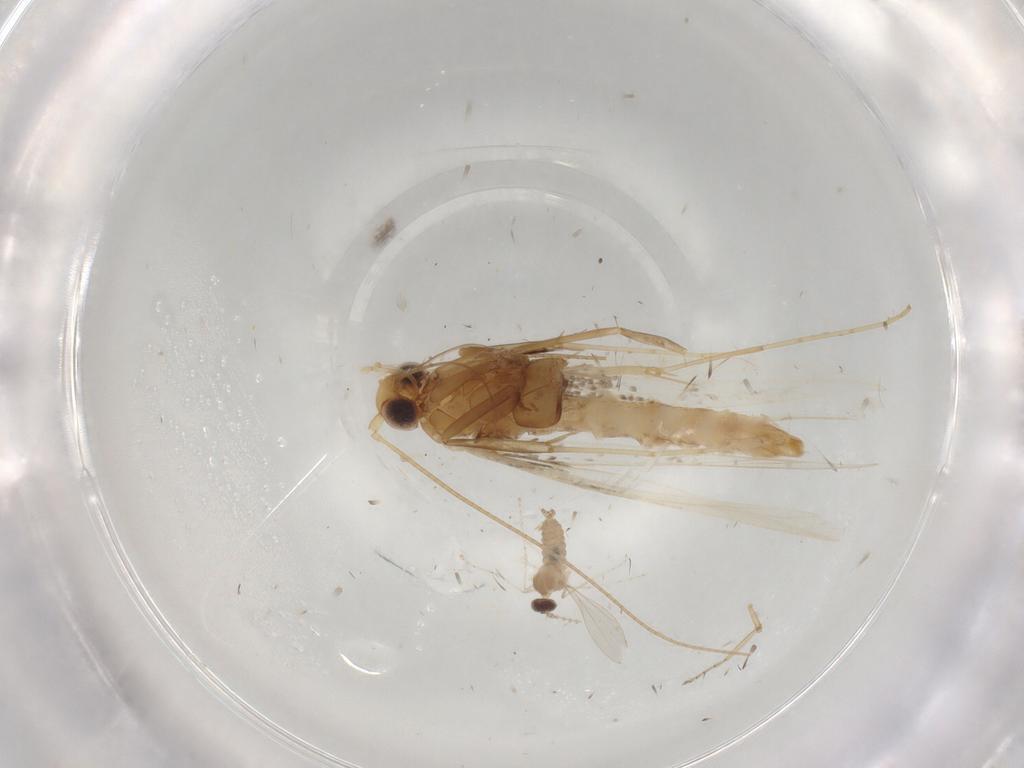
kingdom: Animalia
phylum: Arthropoda
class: Insecta
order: Lepidoptera
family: Gracillariidae
